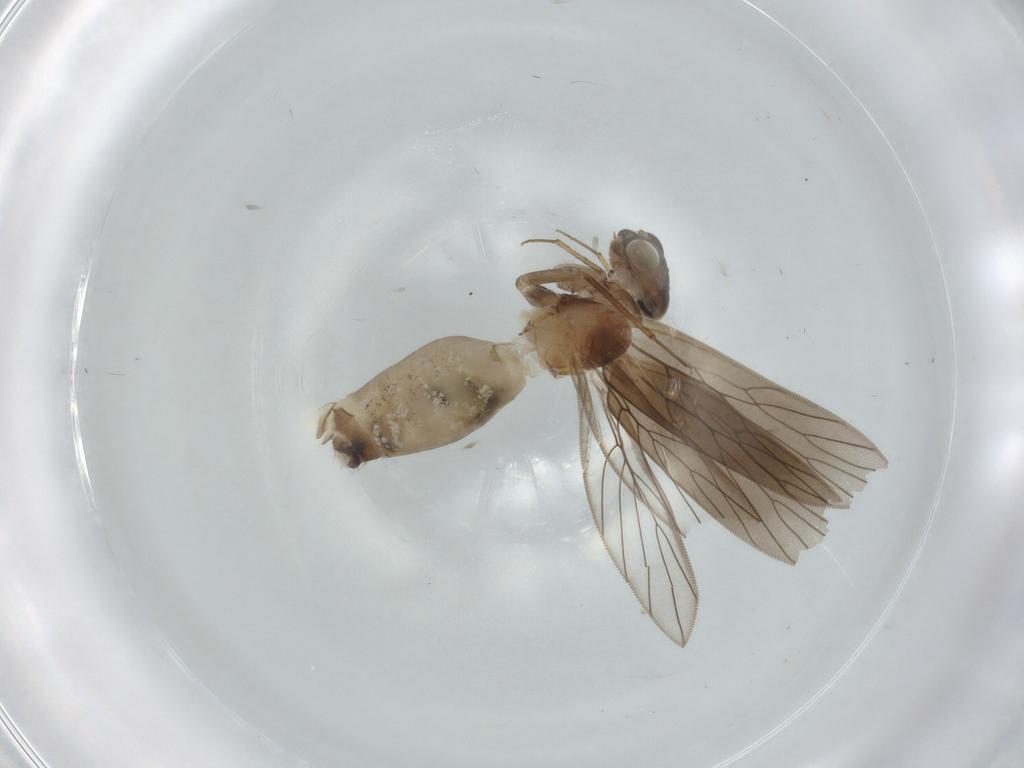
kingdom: Animalia
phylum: Arthropoda
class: Insecta
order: Psocodea
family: Lepidopsocidae
